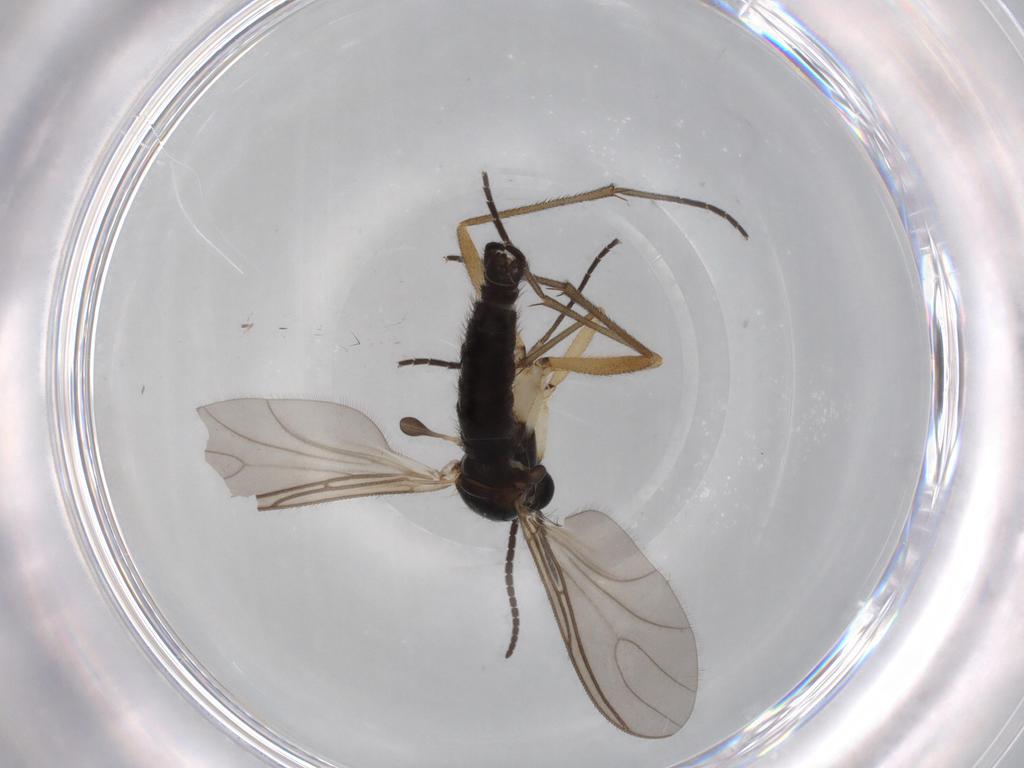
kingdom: Animalia
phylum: Arthropoda
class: Insecta
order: Diptera
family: Sciaridae
